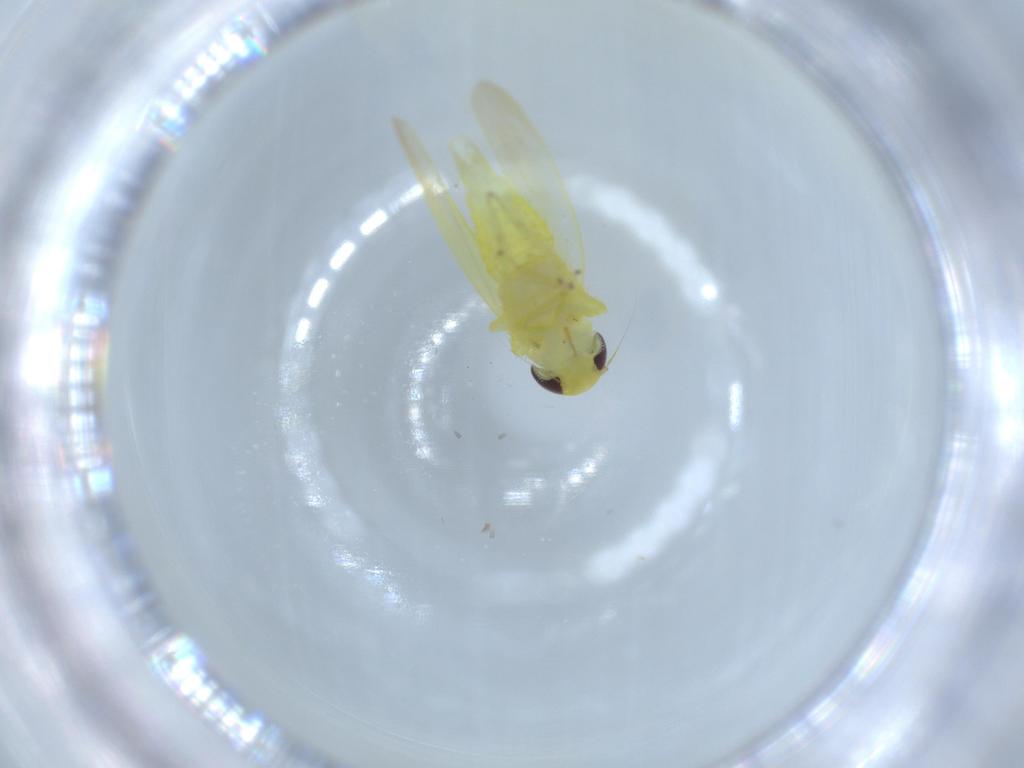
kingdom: Animalia
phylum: Arthropoda
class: Insecta
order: Hemiptera
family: Cicadellidae
